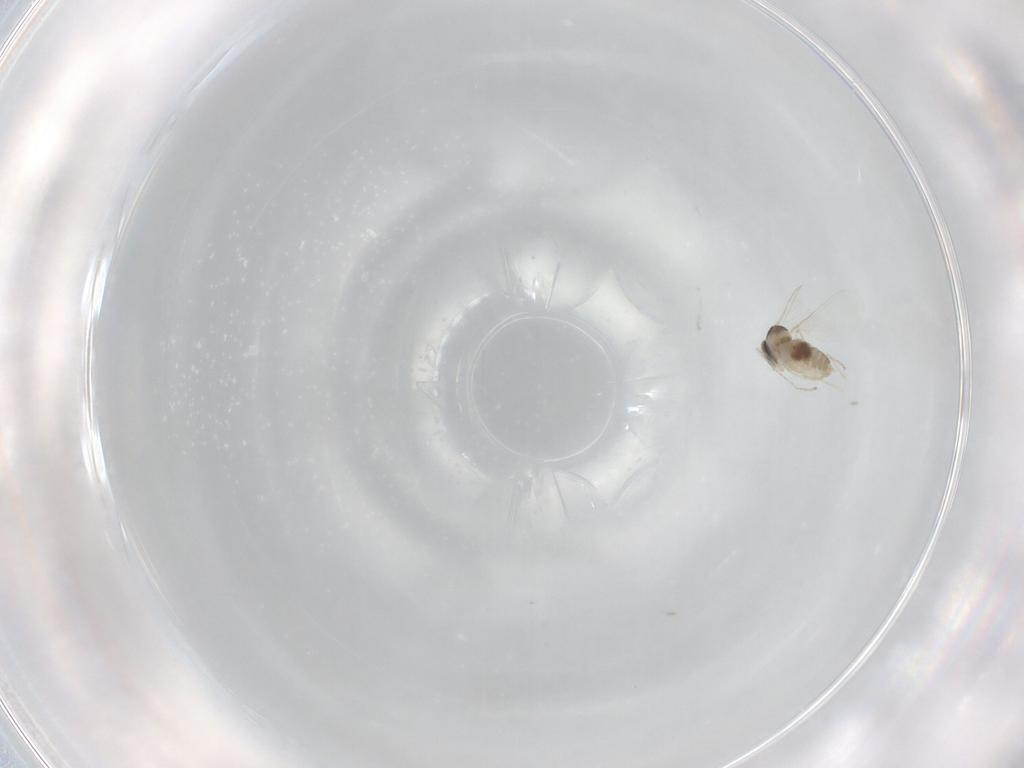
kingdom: Animalia
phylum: Arthropoda
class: Insecta
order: Diptera
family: Cecidomyiidae
